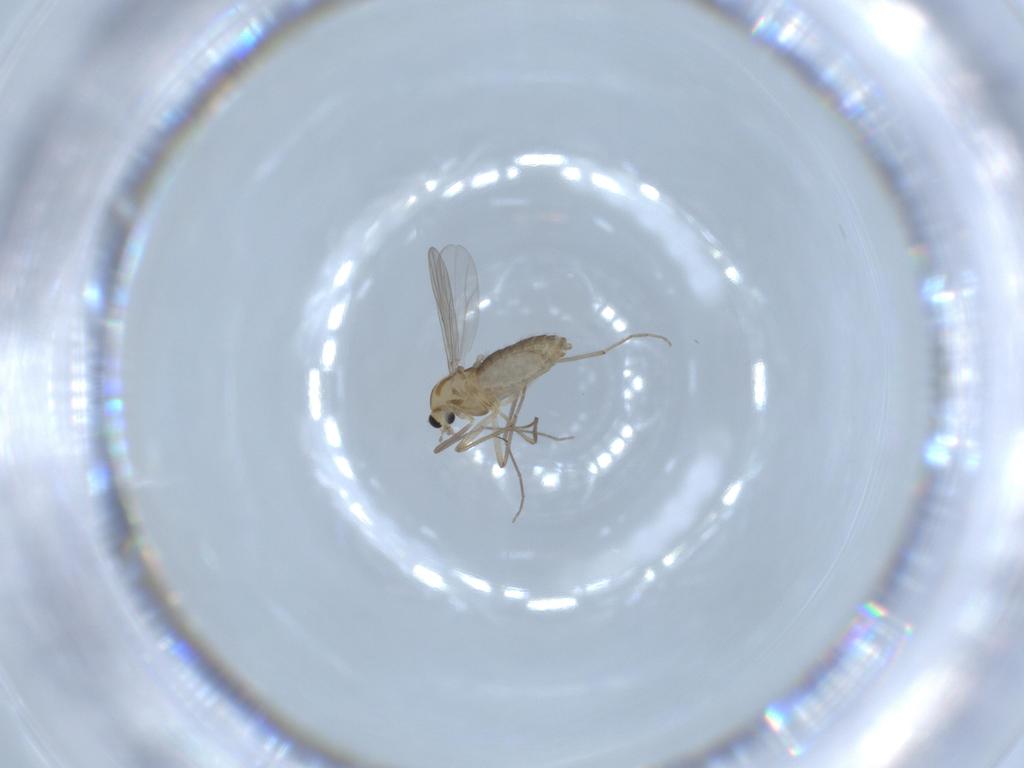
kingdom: Animalia
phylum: Arthropoda
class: Insecta
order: Diptera
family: Chironomidae
